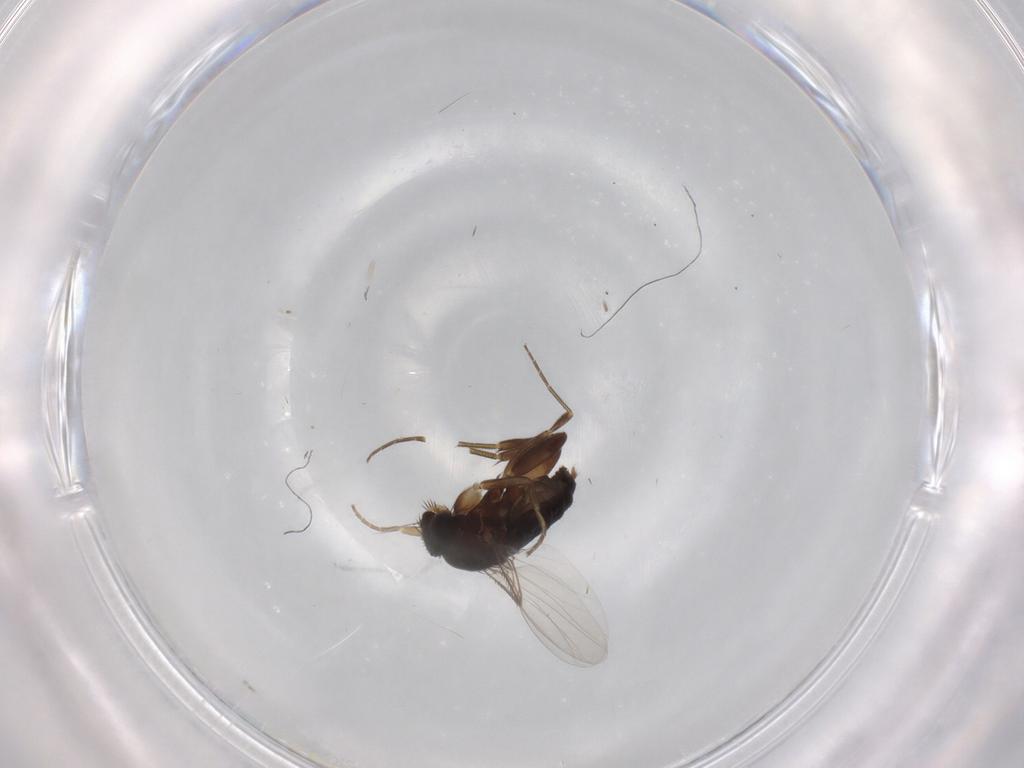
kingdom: Animalia
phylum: Arthropoda
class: Insecta
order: Diptera
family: Phoridae
